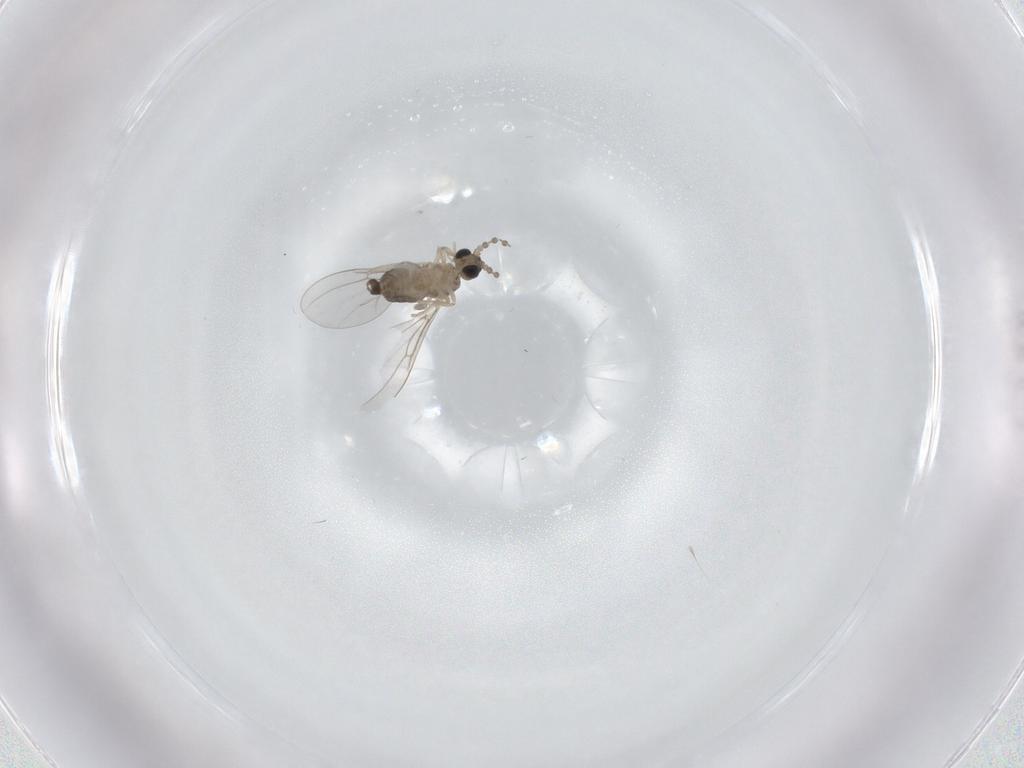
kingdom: Animalia
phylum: Arthropoda
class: Insecta
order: Diptera
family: Cecidomyiidae
